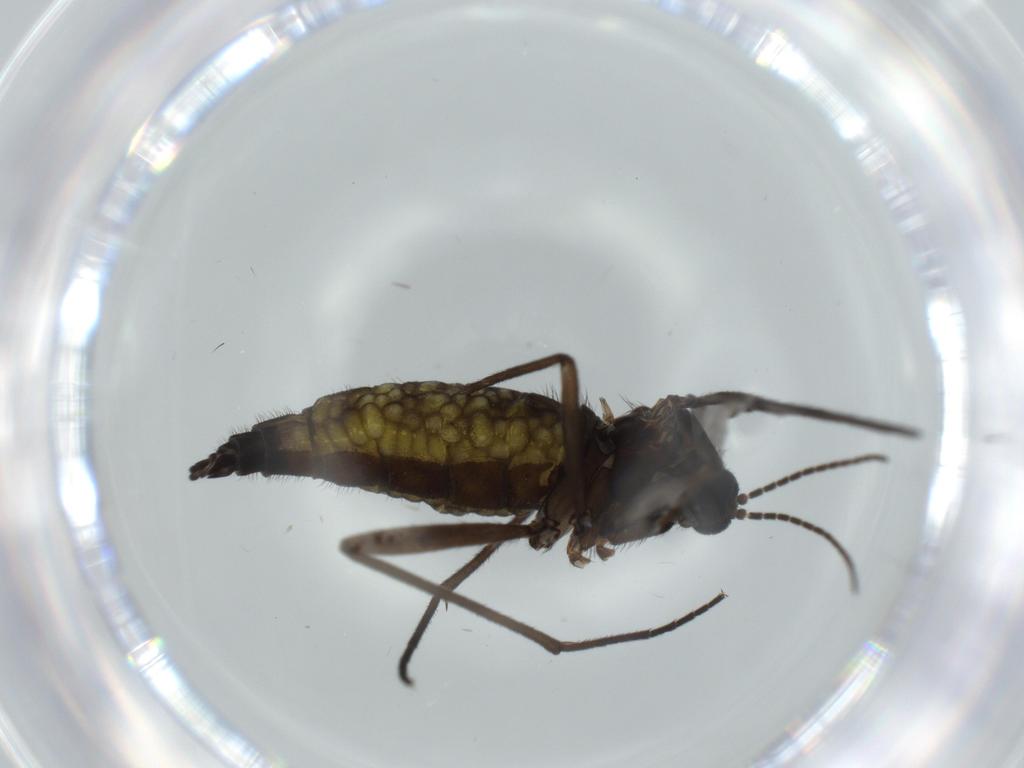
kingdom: Animalia
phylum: Arthropoda
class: Insecta
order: Diptera
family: Sciaridae
